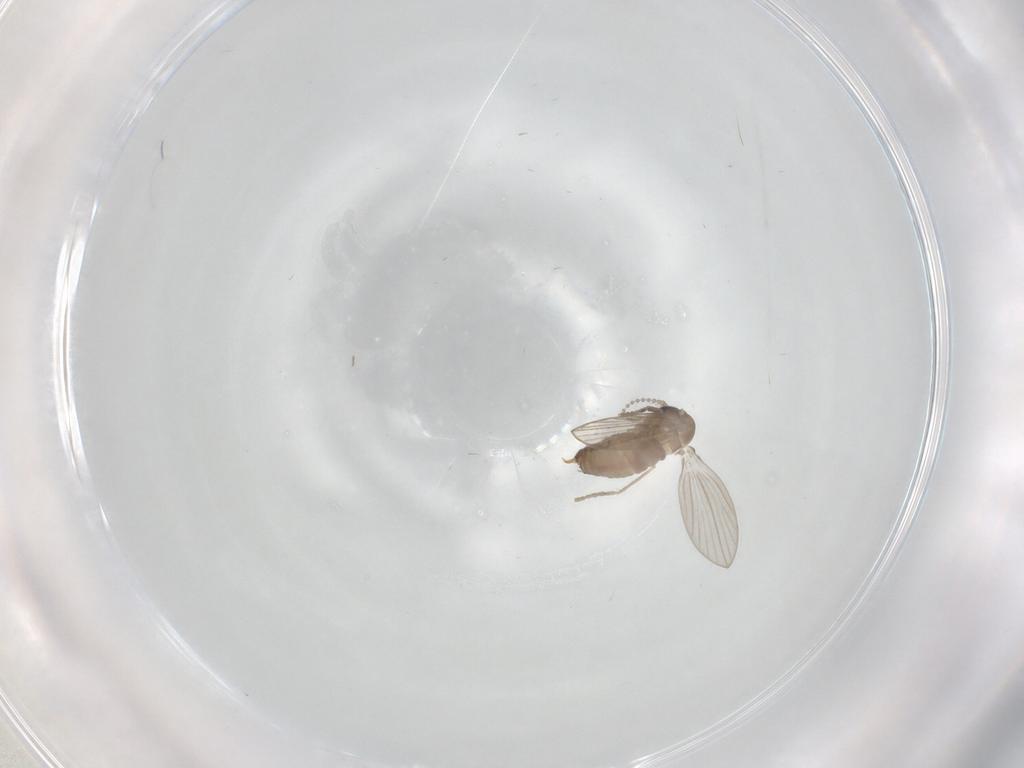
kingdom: Animalia
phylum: Arthropoda
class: Insecta
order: Diptera
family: Psychodidae
